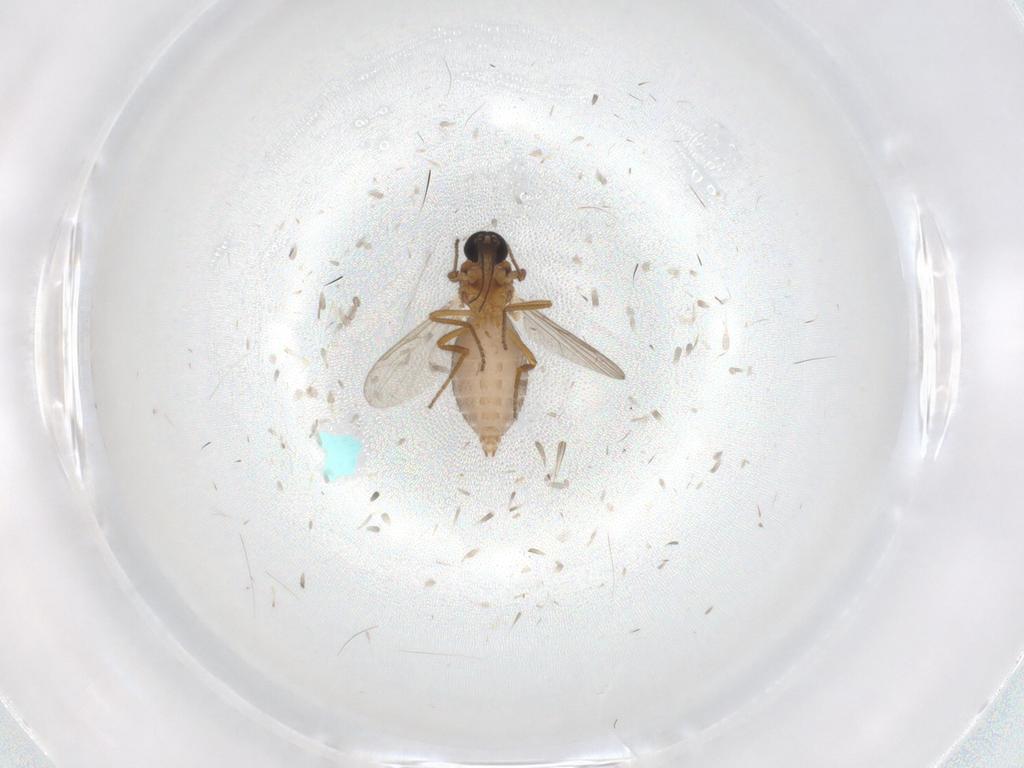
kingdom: Animalia
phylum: Arthropoda
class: Insecta
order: Diptera
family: Ceratopogonidae
